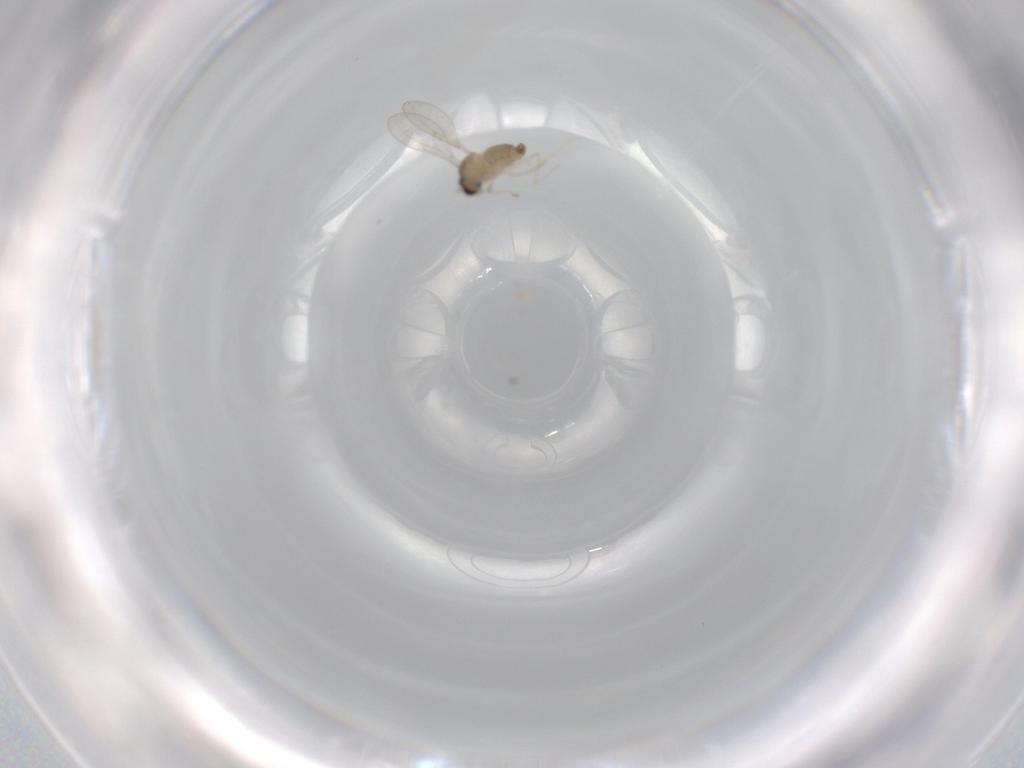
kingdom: Animalia
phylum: Arthropoda
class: Insecta
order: Diptera
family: Cecidomyiidae
